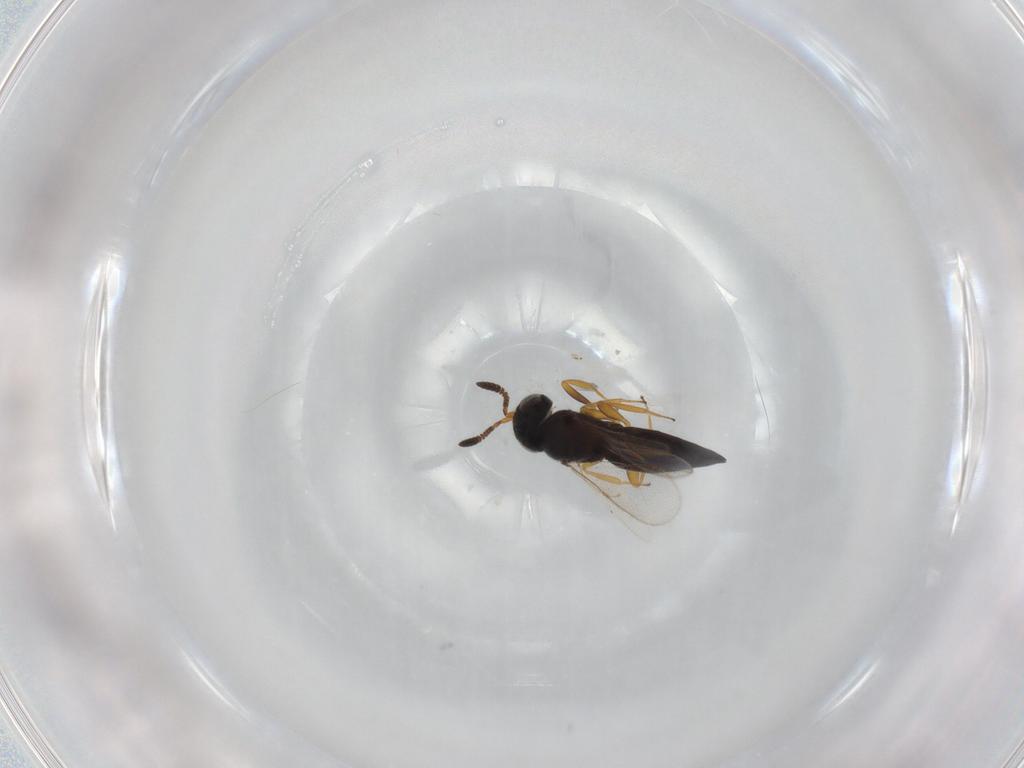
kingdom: Animalia
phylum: Arthropoda
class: Insecta
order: Hymenoptera
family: Scelionidae
